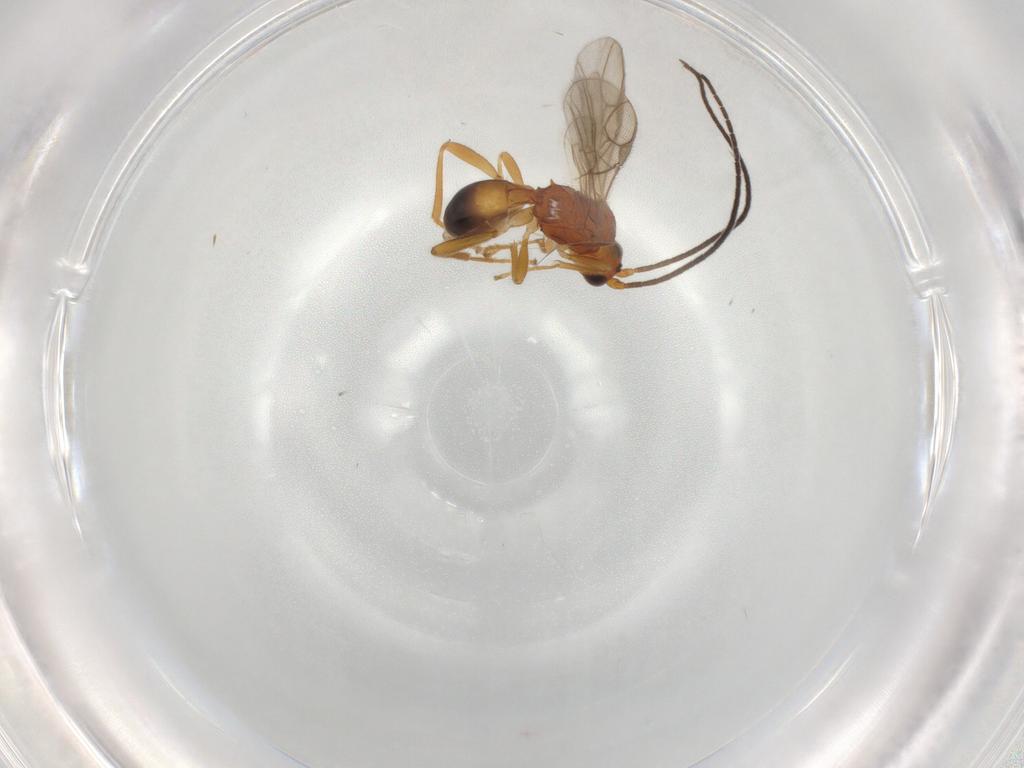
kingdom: Animalia
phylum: Arthropoda
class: Insecta
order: Hymenoptera
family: Braconidae
